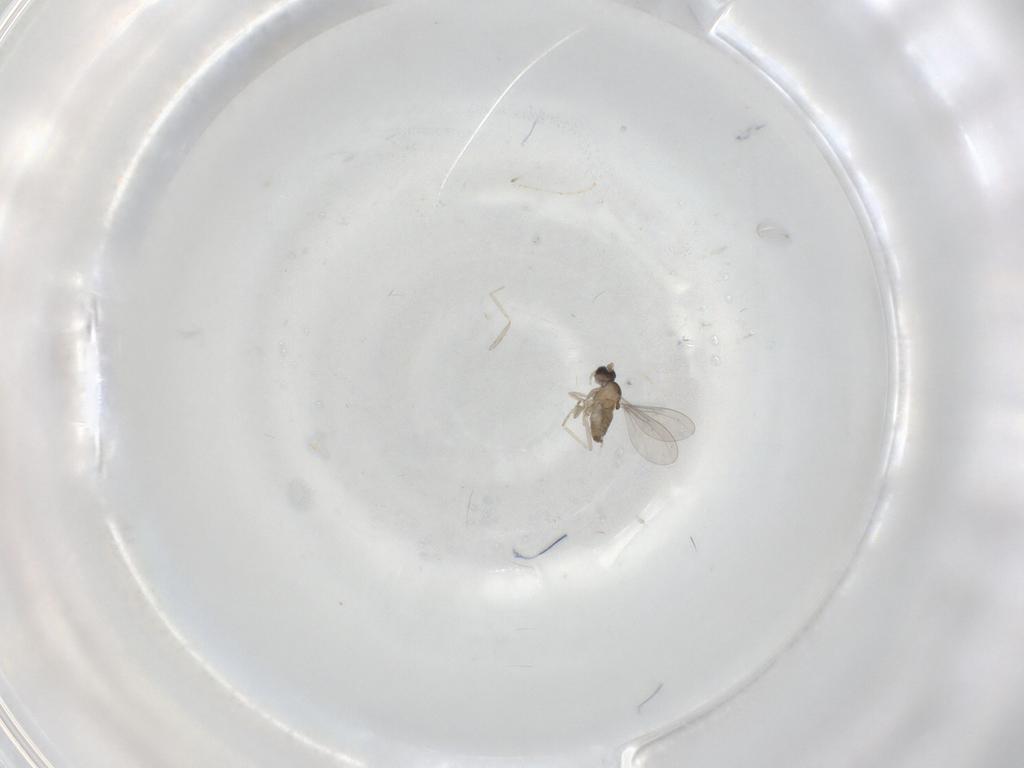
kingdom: Animalia
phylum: Arthropoda
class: Insecta
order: Diptera
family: Cecidomyiidae
